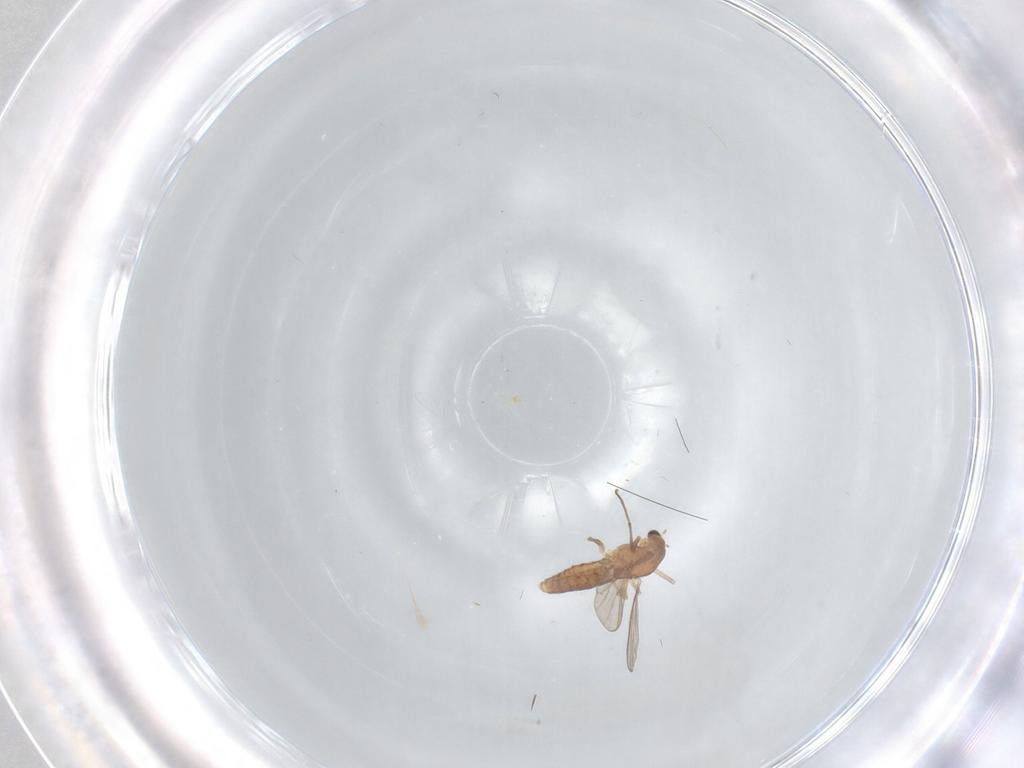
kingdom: Animalia
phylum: Arthropoda
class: Insecta
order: Diptera
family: Chironomidae
